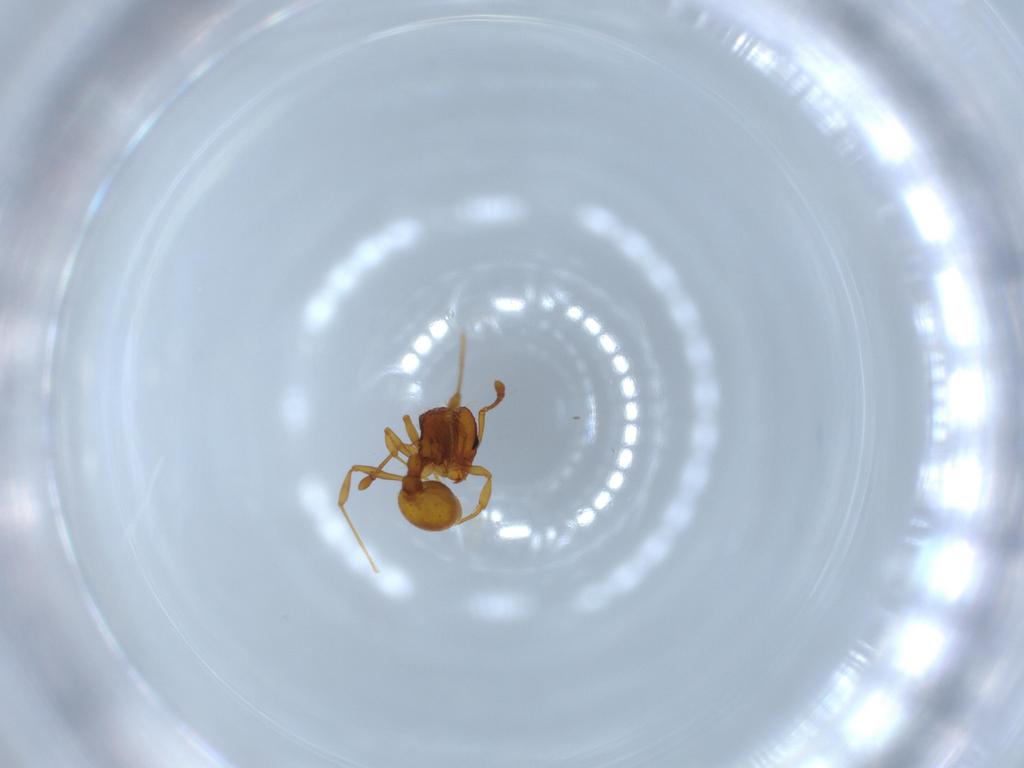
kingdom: Animalia
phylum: Arthropoda
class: Insecta
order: Hymenoptera
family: Formicidae
